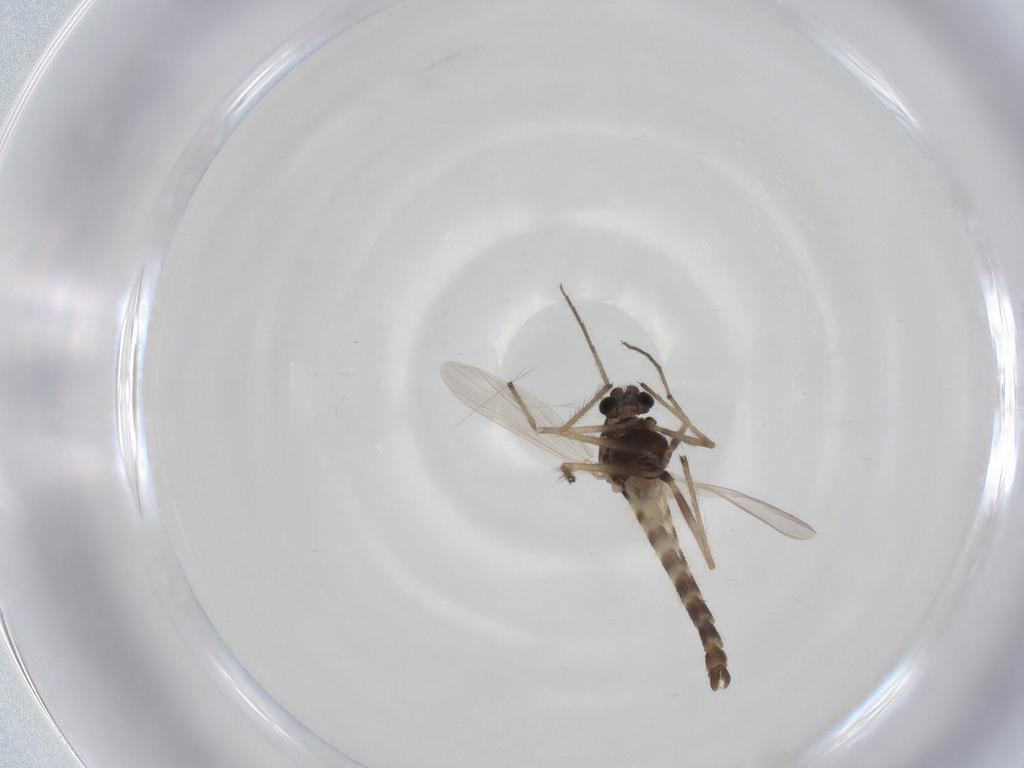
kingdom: Animalia
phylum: Arthropoda
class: Insecta
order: Diptera
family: Chironomidae
